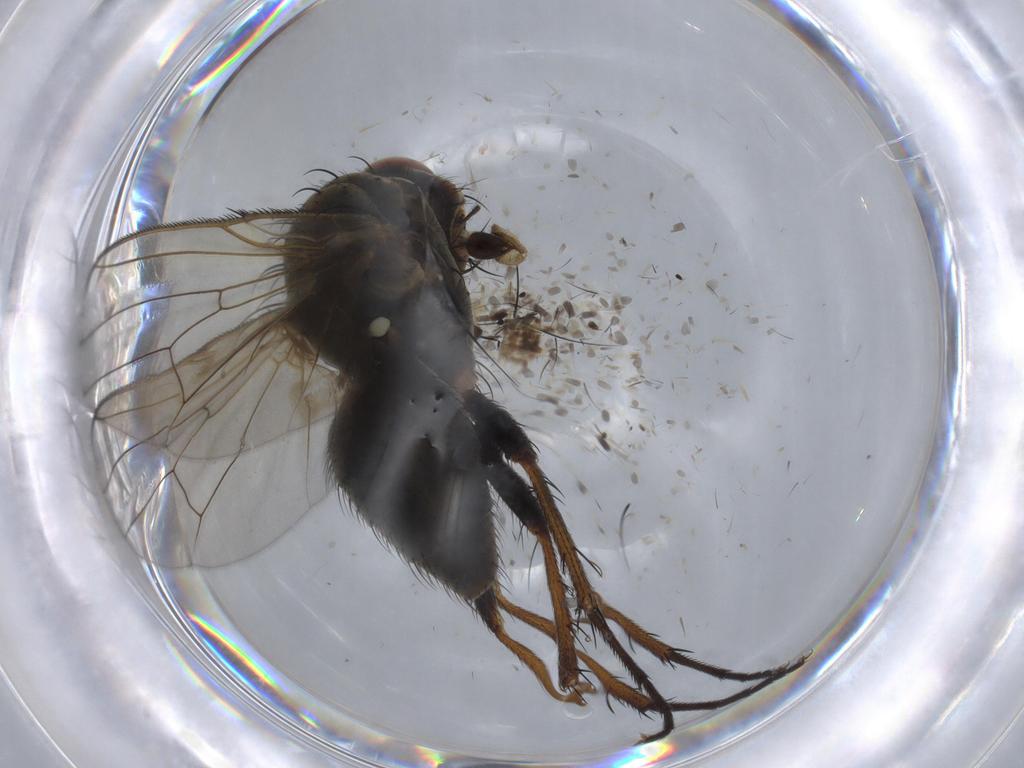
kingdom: Animalia
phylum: Arthropoda
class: Insecta
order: Diptera
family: Anthomyiidae
